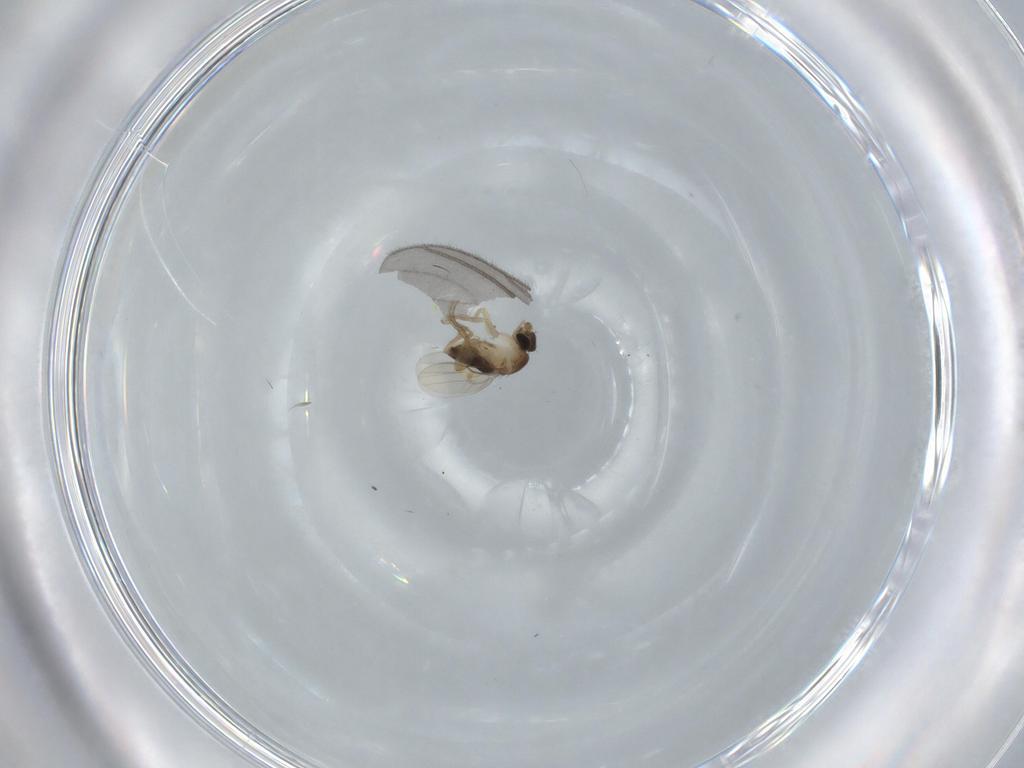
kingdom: Animalia
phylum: Arthropoda
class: Insecta
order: Diptera
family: Phoridae
